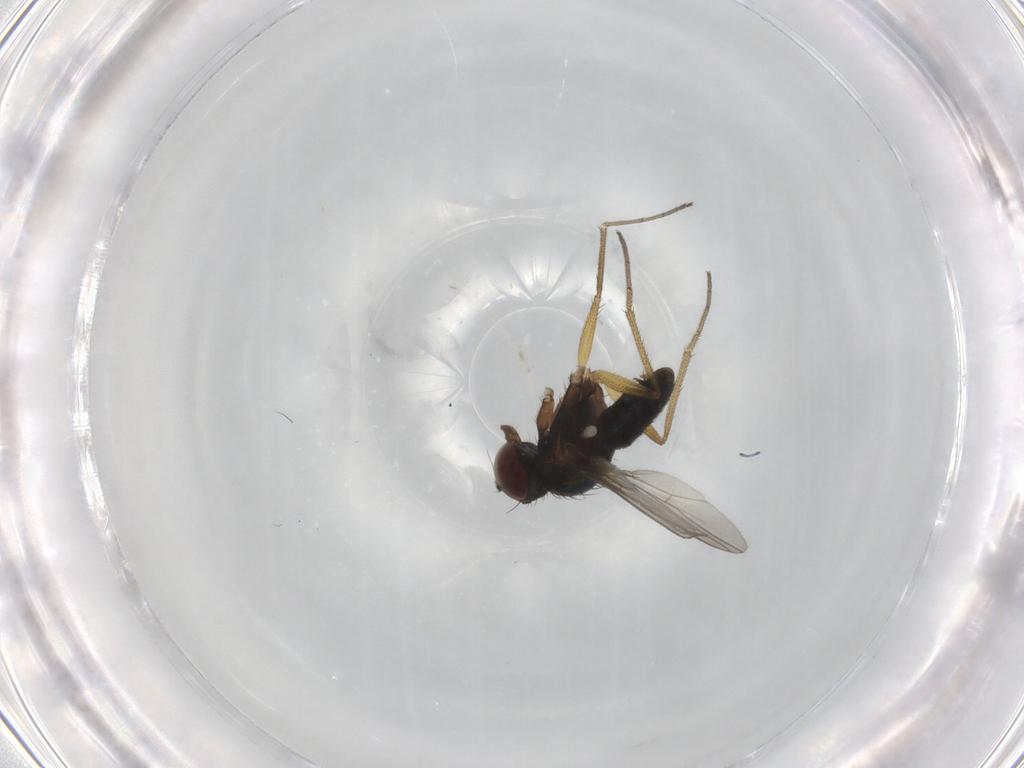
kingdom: Animalia
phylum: Arthropoda
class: Insecta
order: Diptera
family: Dolichopodidae
